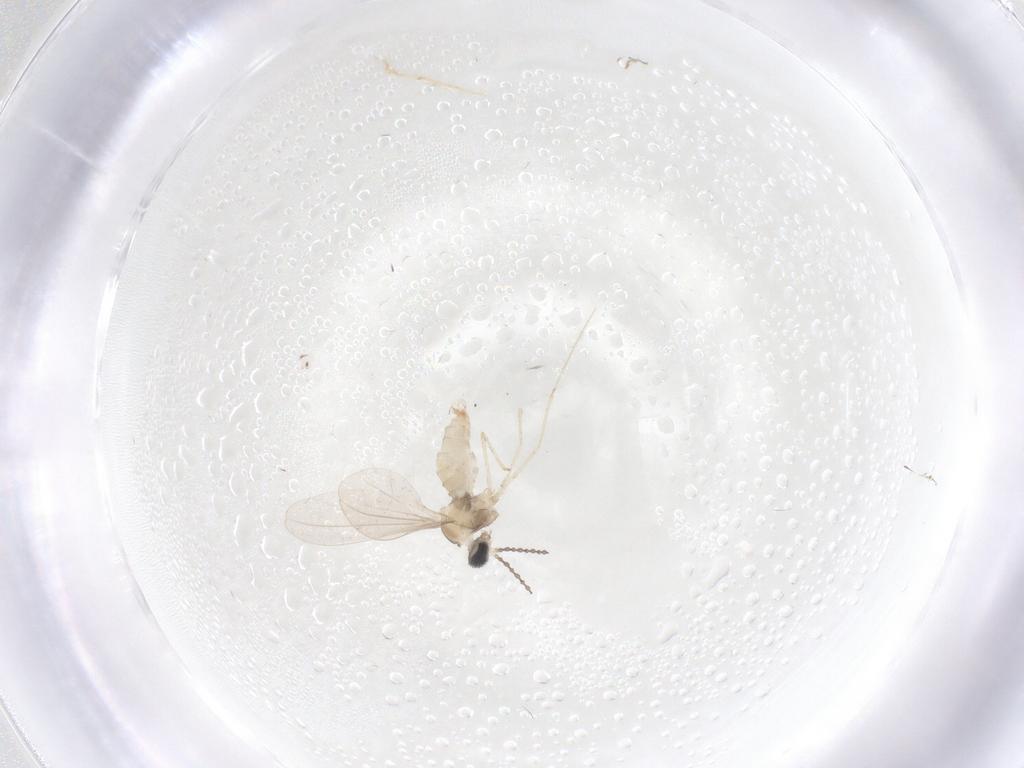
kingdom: Animalia
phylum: Arthropoda
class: Insecta
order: Diptera
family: Cecidomyiidae
